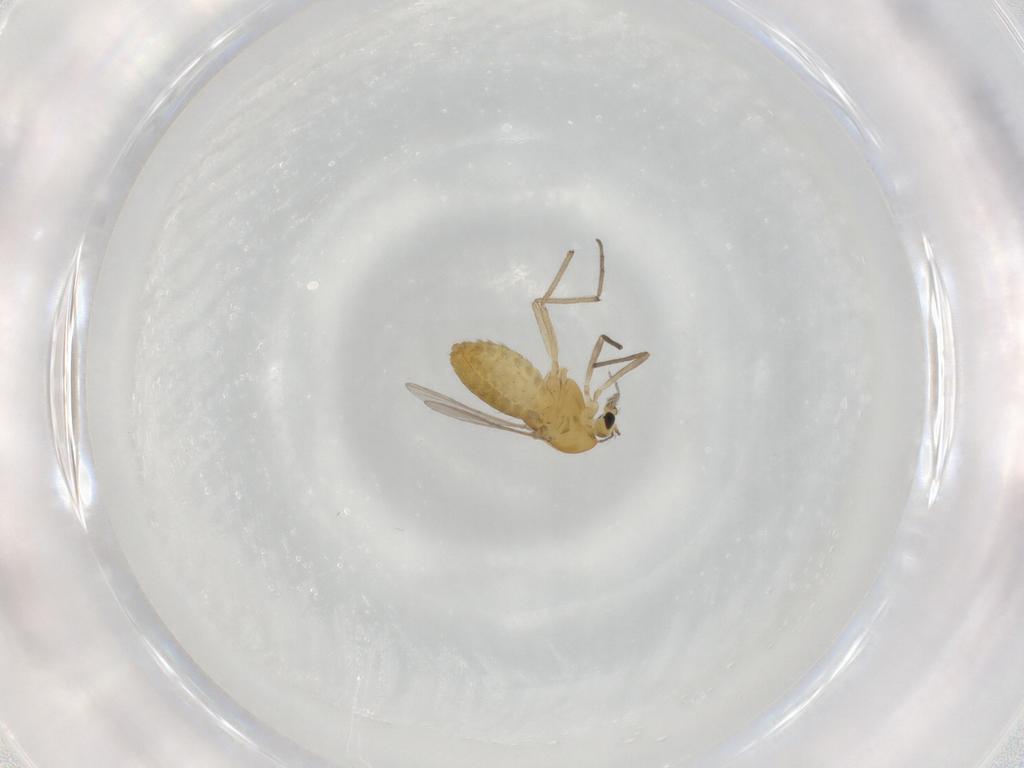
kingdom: Animalia
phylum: Arthropoda
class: Insecta
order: Diptera
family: Chironomidae
